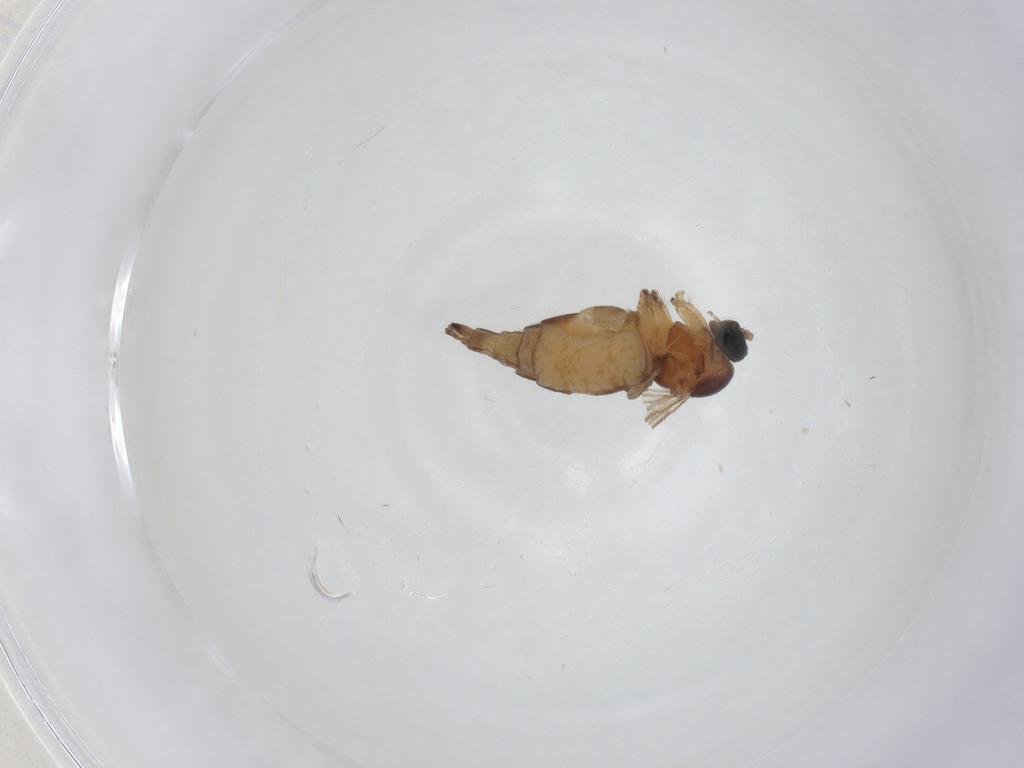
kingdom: Animalia
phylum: Arthropoda
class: Insecta
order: Diptera
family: Sciaridae
